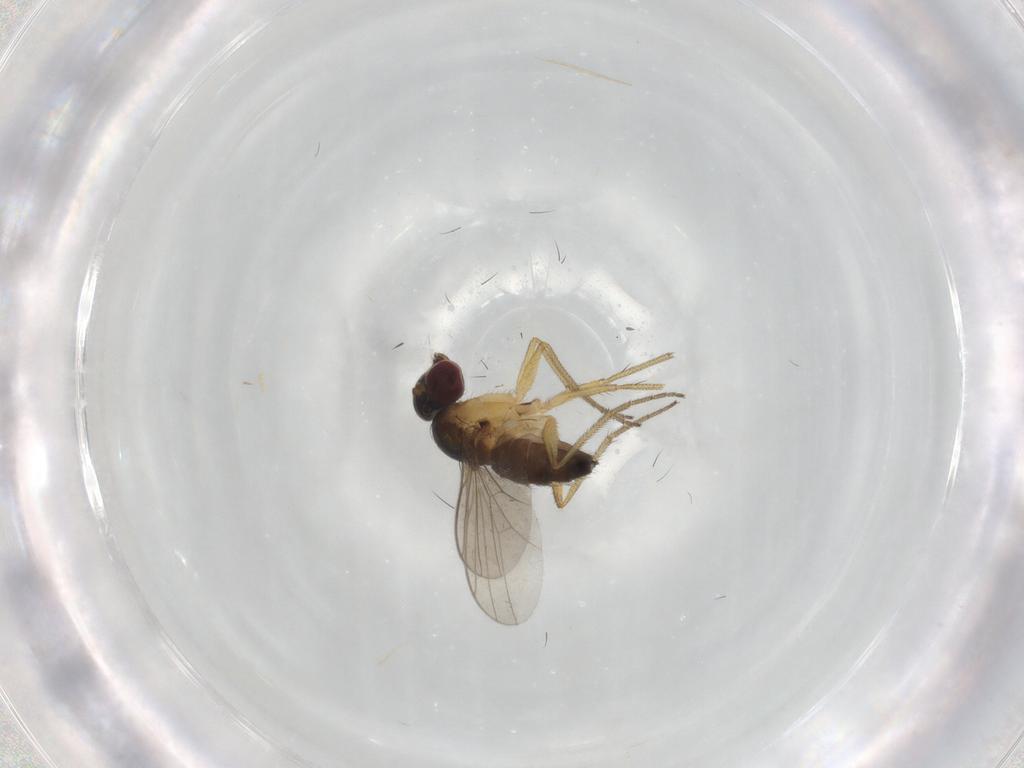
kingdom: Animalia
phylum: Arthropoda
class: Insecta
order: Diptera
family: Dolichopodidae
